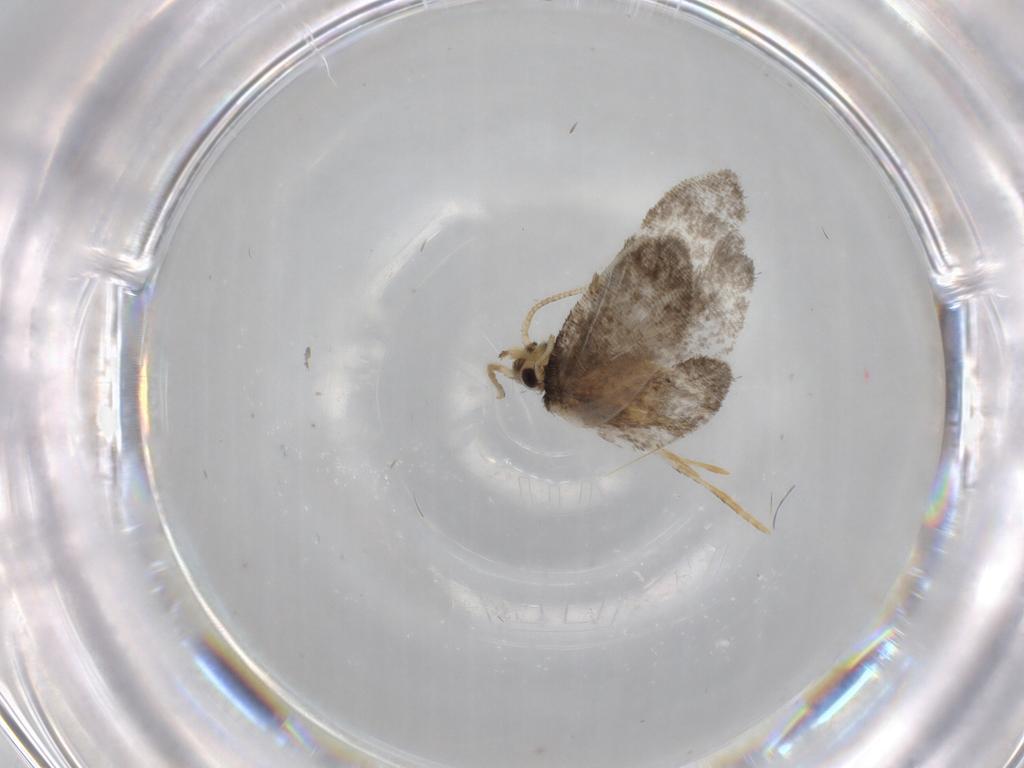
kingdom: Animalia
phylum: Arthropoda
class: Insecta
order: Lepidoptera
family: Psychidae
